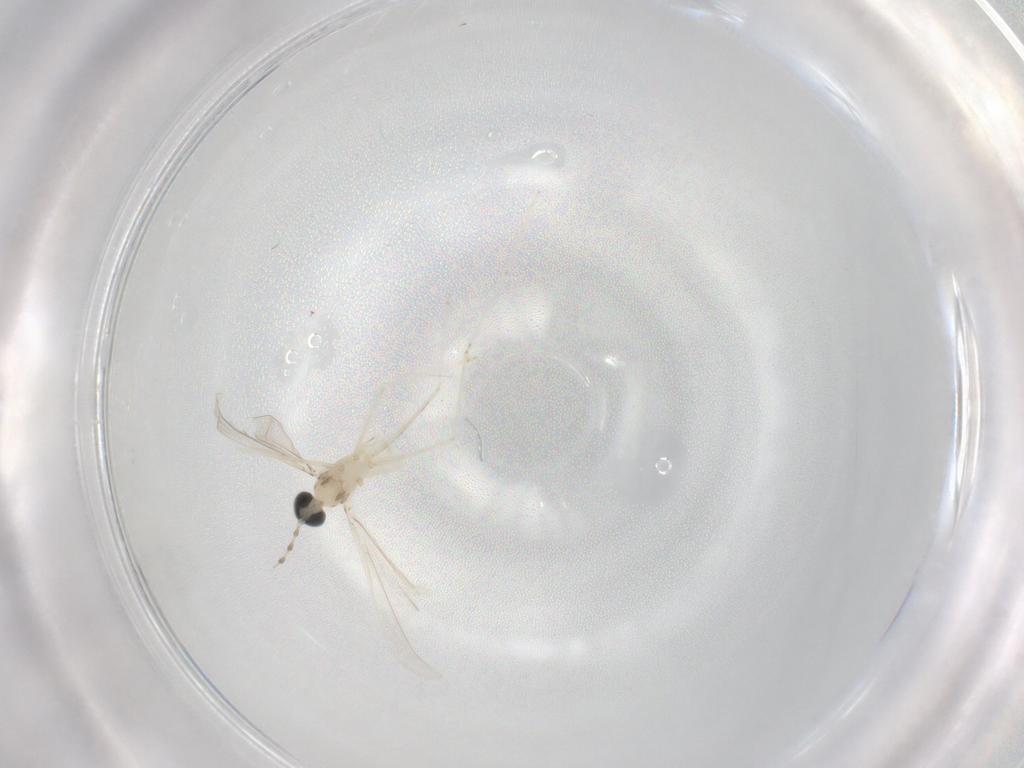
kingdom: Animalia
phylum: Arthropoda
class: Insecta
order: Diptera
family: Cecidomyiidae
